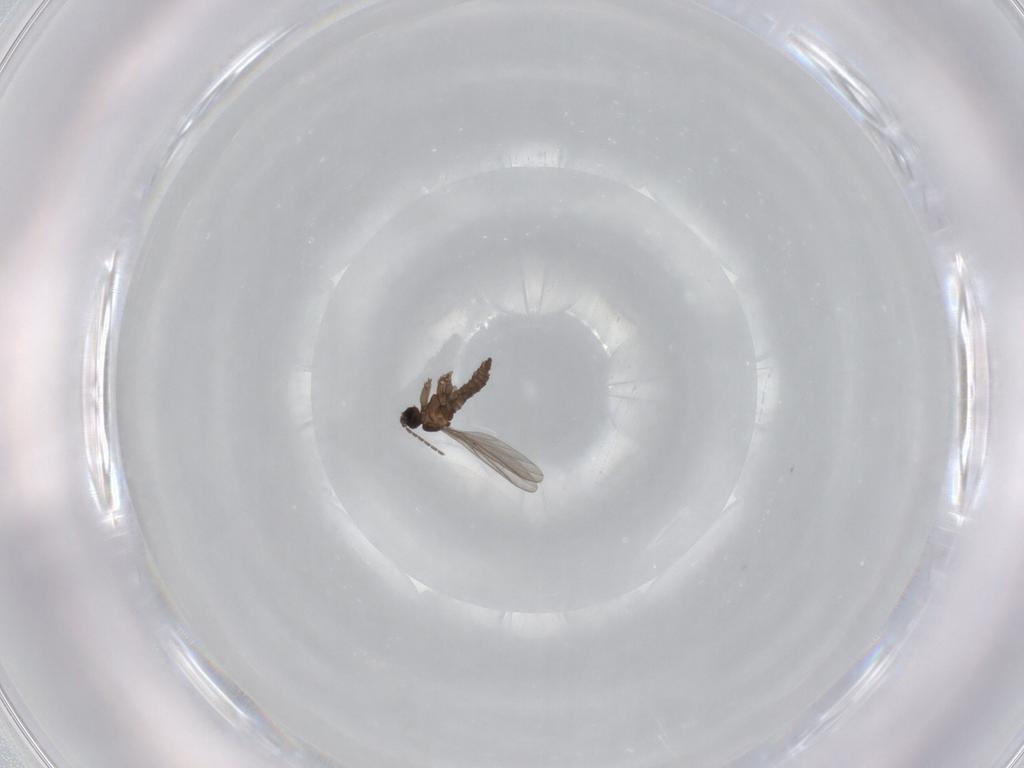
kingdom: Animalia
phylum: Arthropoda
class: Insecta
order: Diptera
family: Sciaridae
